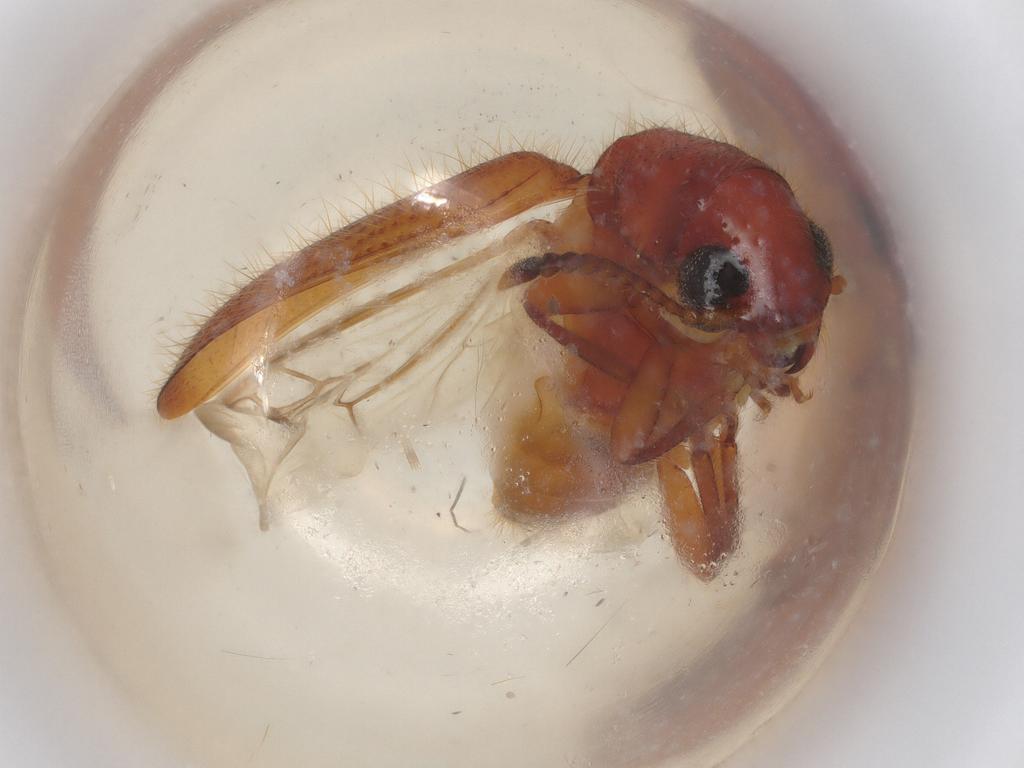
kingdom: Animalia
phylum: Arthropoda
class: Insecta
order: Coleoptera
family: Cleridae
